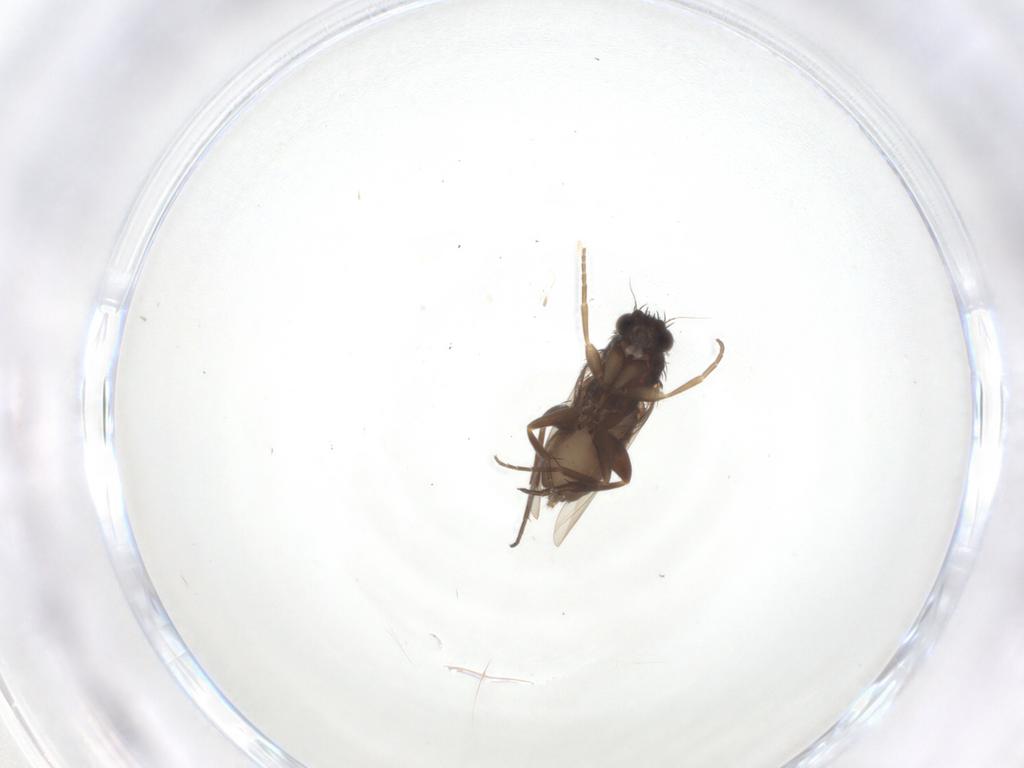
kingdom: Animalia
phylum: Arthropoda
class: Insecta
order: Diptera
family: Phoridae
